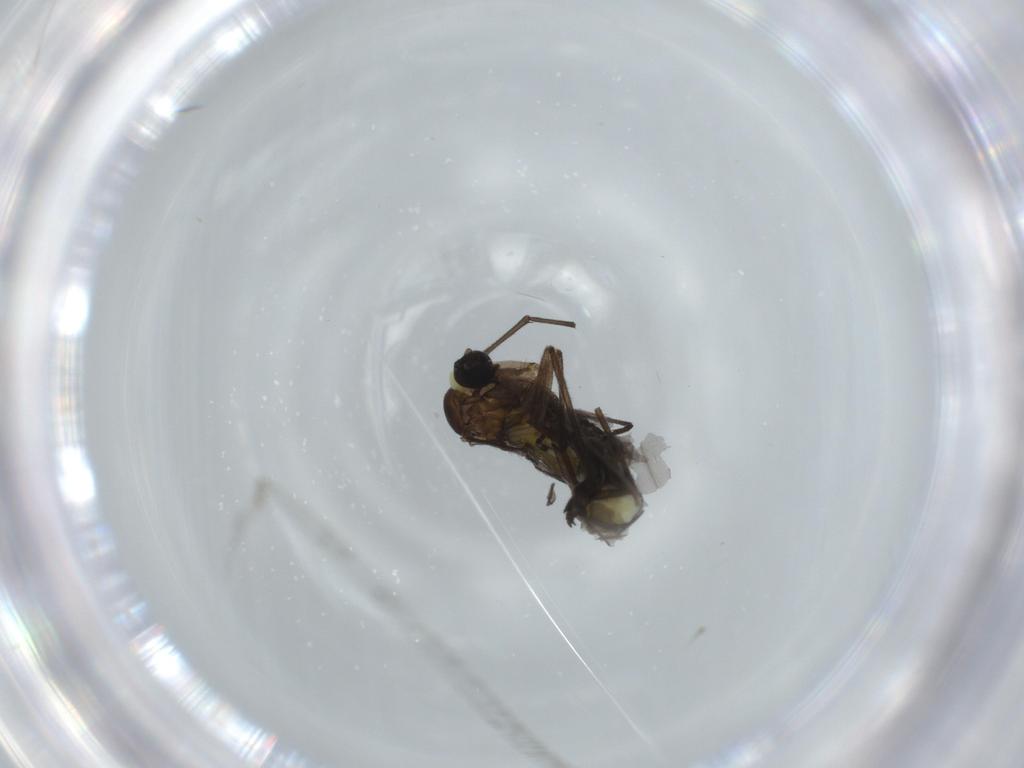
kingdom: Animalia
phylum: Arthropoda
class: Insecta
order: Diptera
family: Sciaridae
